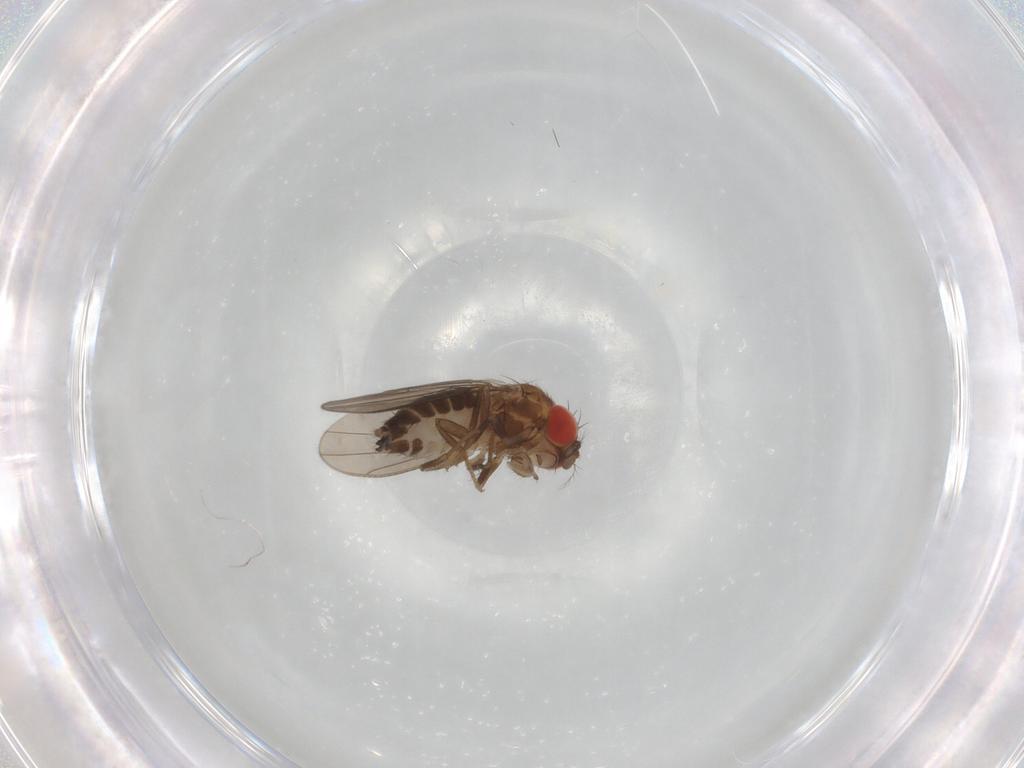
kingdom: Animalia
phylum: Arthropoda
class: Insecta
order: Diptera
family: Drosophilidae
